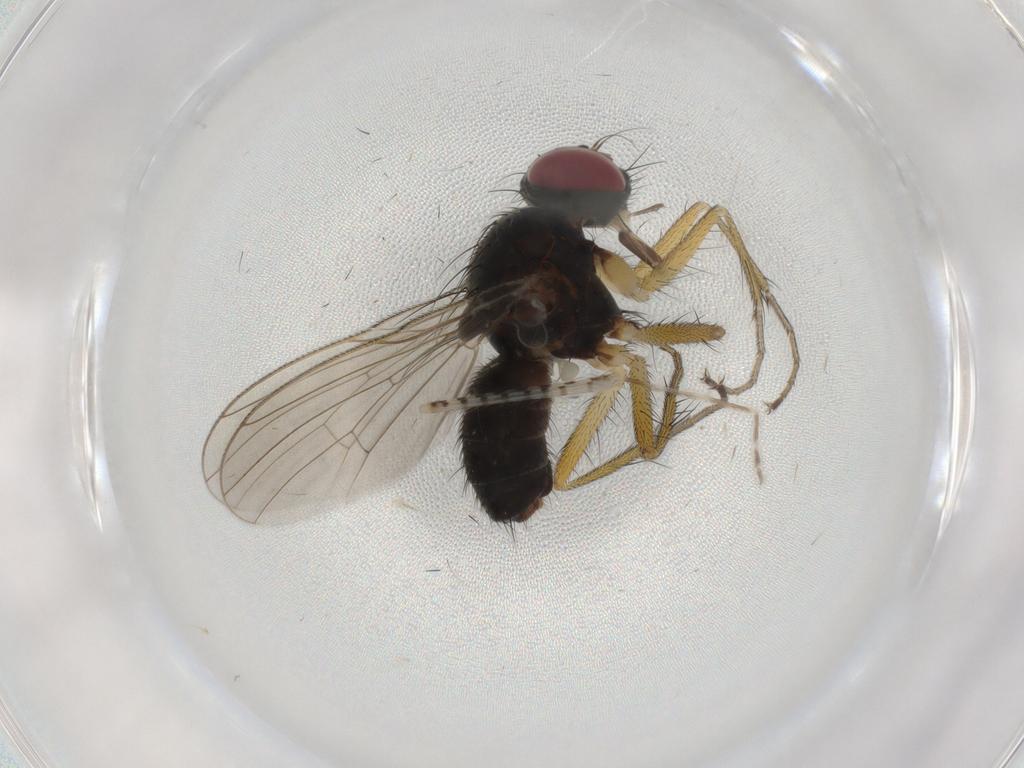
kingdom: Animalia
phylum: Arthropoda
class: Insecta
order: Diptera
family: Muscidae
